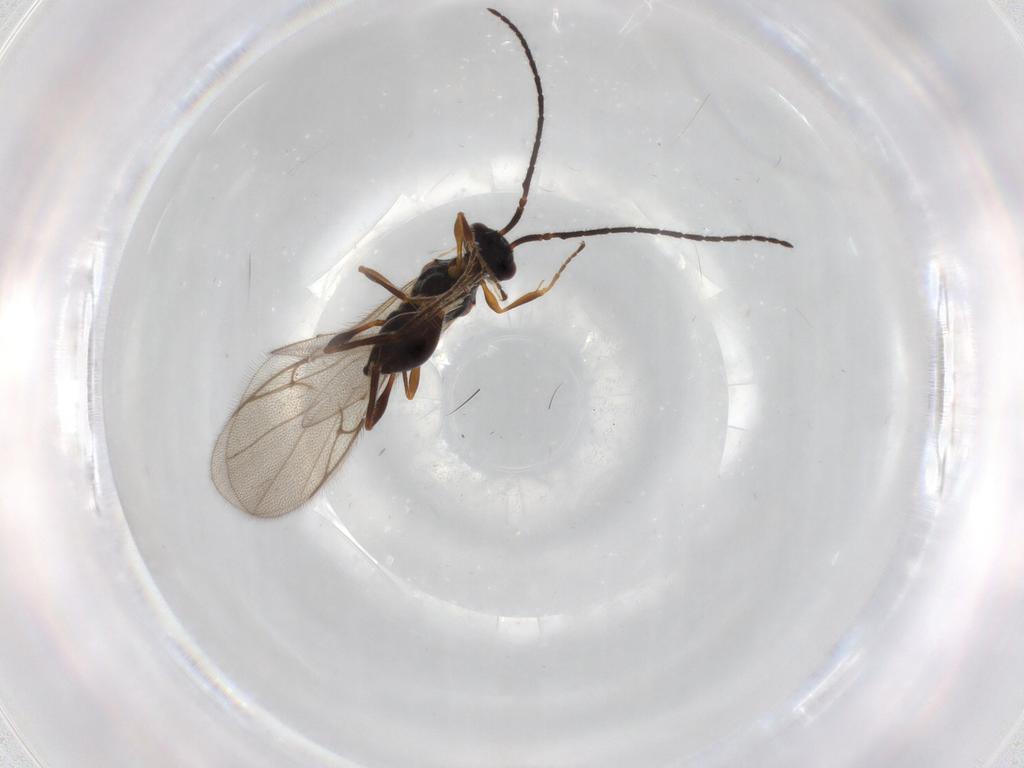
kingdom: Animalia
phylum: Arthropoda
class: Insecta
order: Hymenoptera
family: Diapriidae
